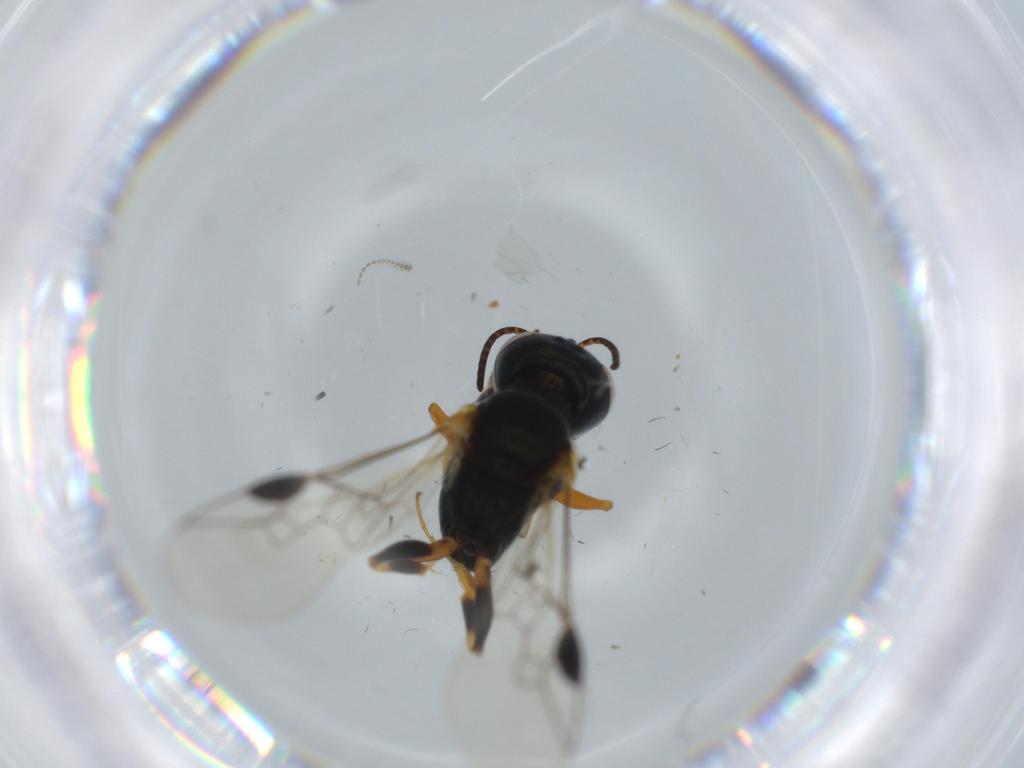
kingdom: Animalia
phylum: Arthropoda
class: Insecta
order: Hymenoptera
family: Pemphredonidae
